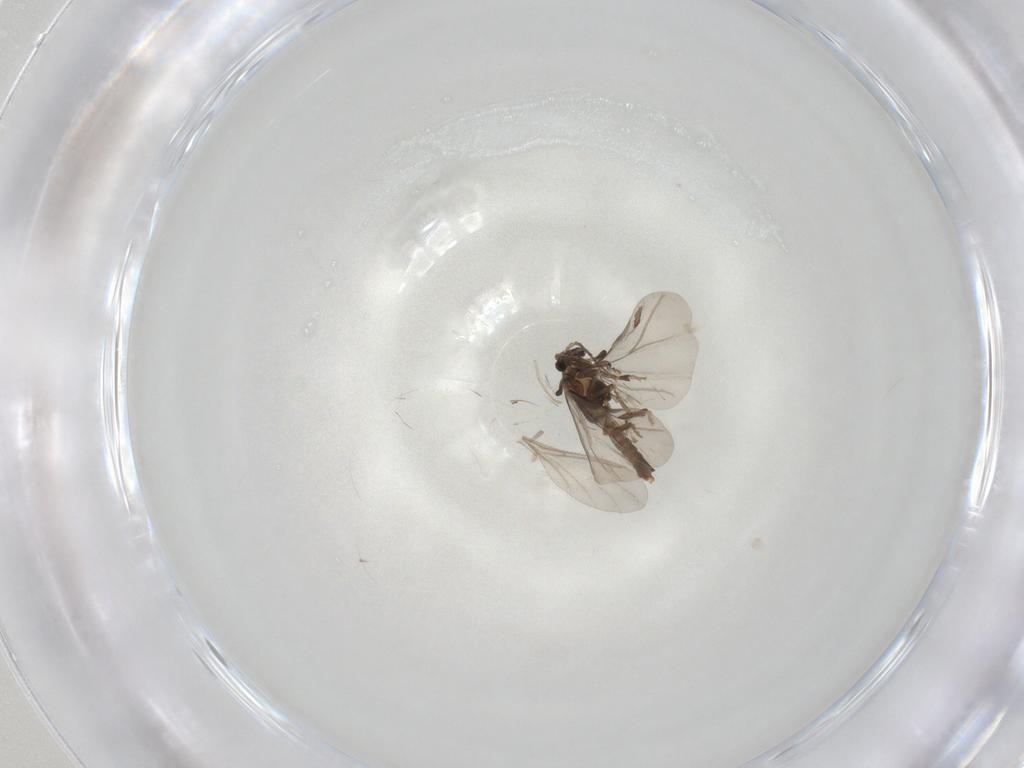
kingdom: Animalia
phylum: Arthropoda
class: Insecta
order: Strepsiptera
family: Halictophagidae
